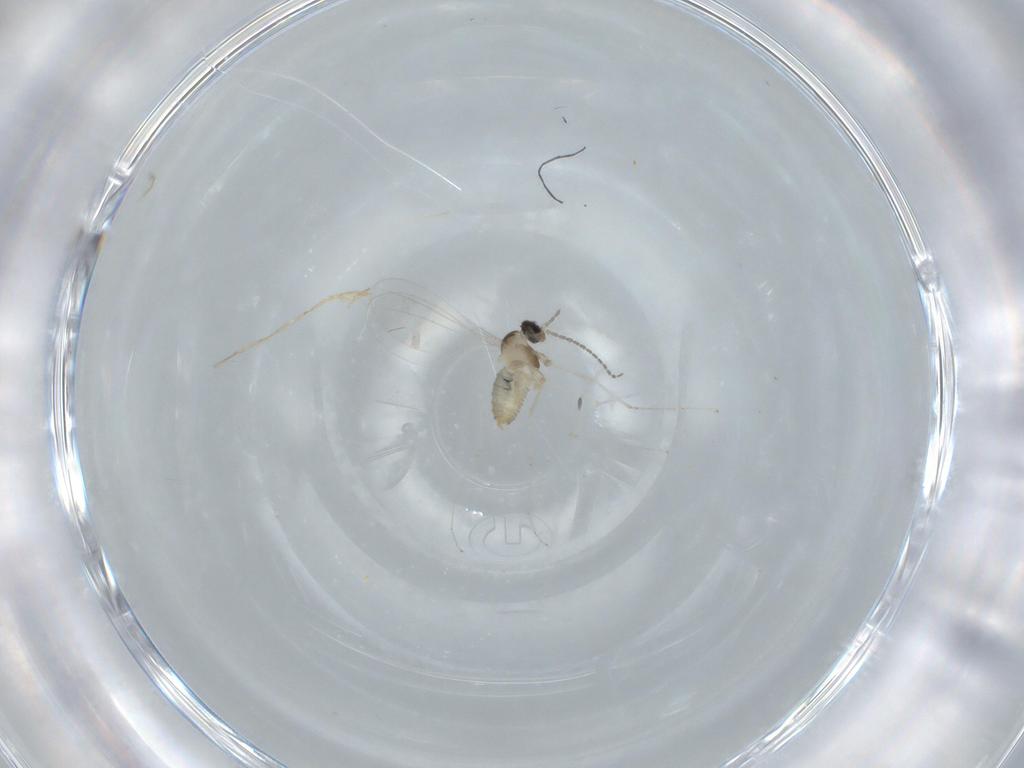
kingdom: Animalia
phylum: Arthropoda
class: Insecta
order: Diptera
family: Cecidomyiidae
